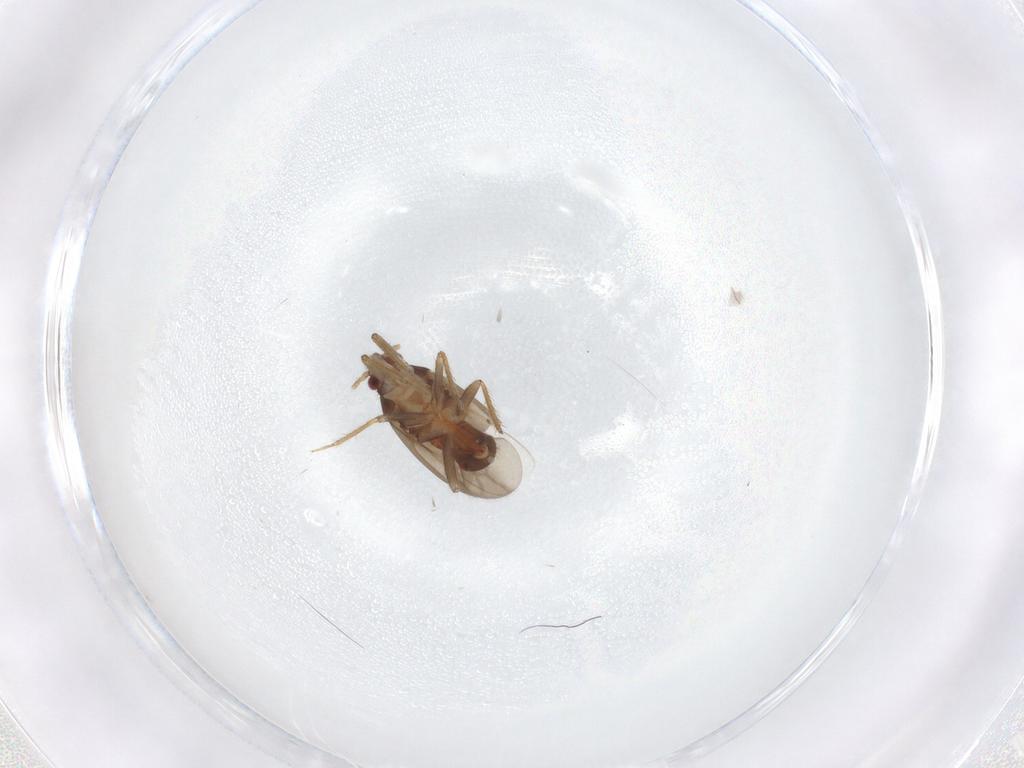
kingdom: Animalia
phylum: Arthropoda
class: Insecta
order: Hemiptera
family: Ceratocombidae
